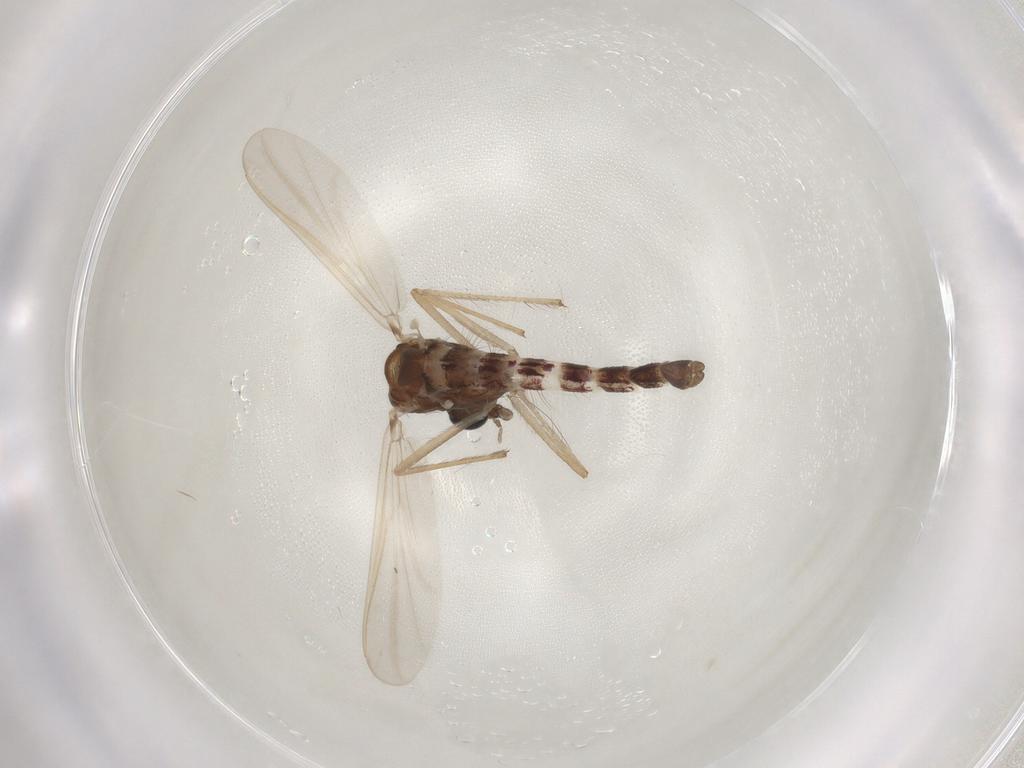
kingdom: Animalia
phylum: Arthropoda
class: Insecta
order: Diptera
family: Chironomidae
